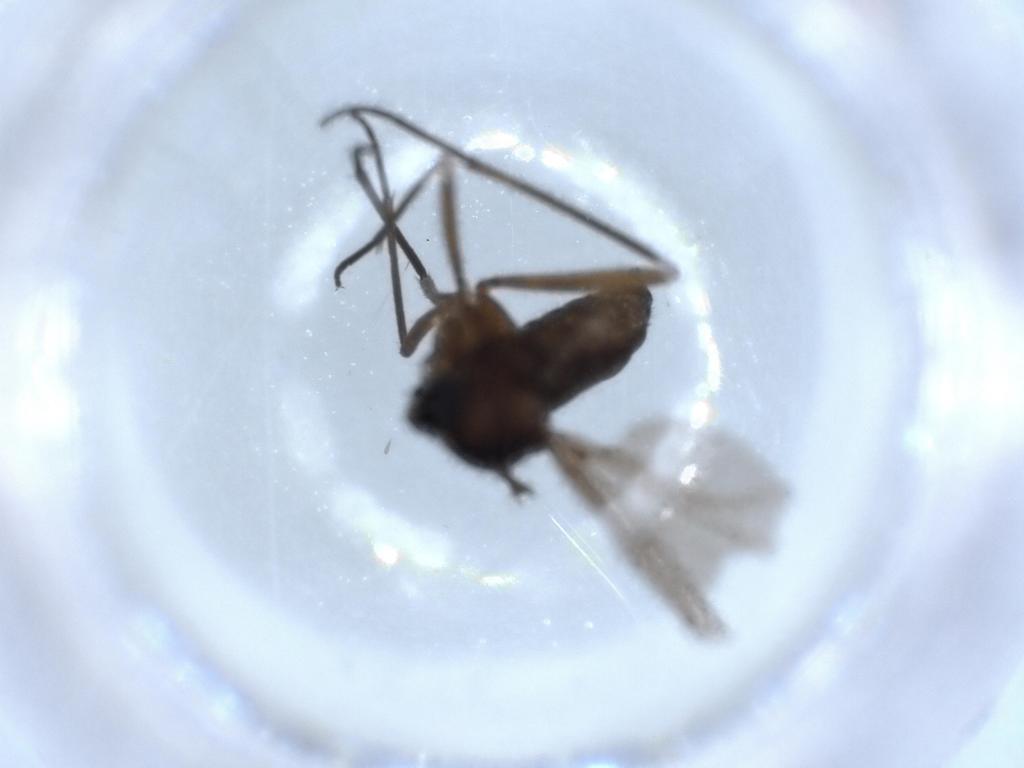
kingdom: Animalia
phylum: Arthropoda
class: Insecta
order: Diptera
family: Sciaridae
